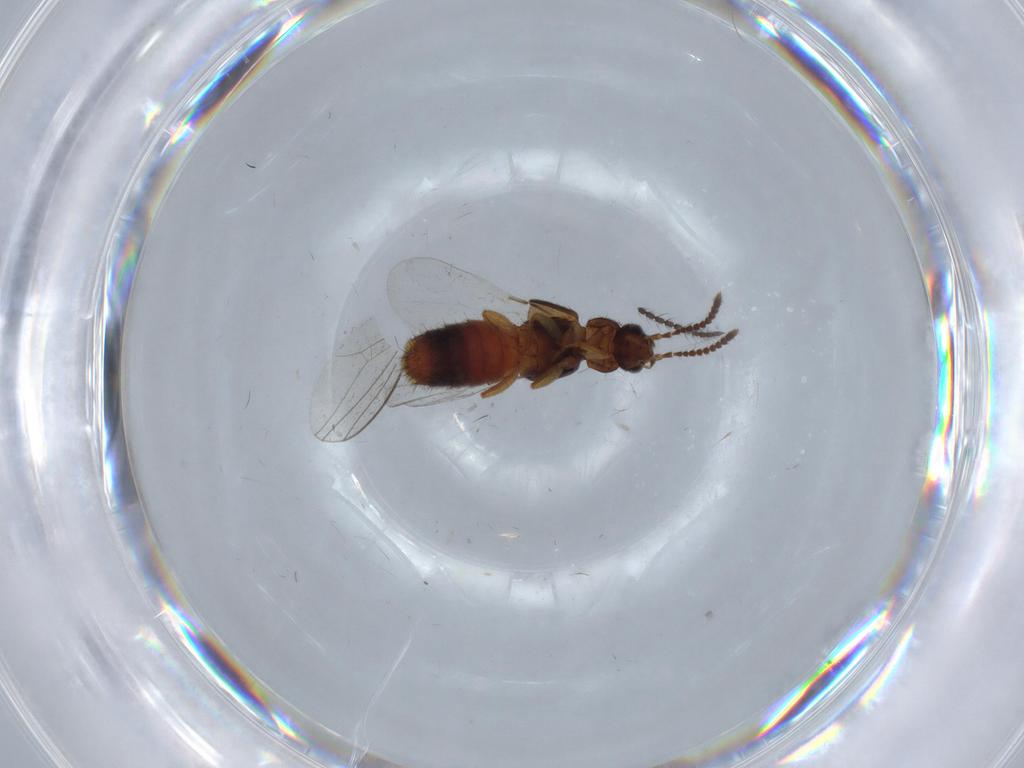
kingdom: Animalia
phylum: Arthropoda
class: Insecta
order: Coleoptera
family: Staphylinidae
